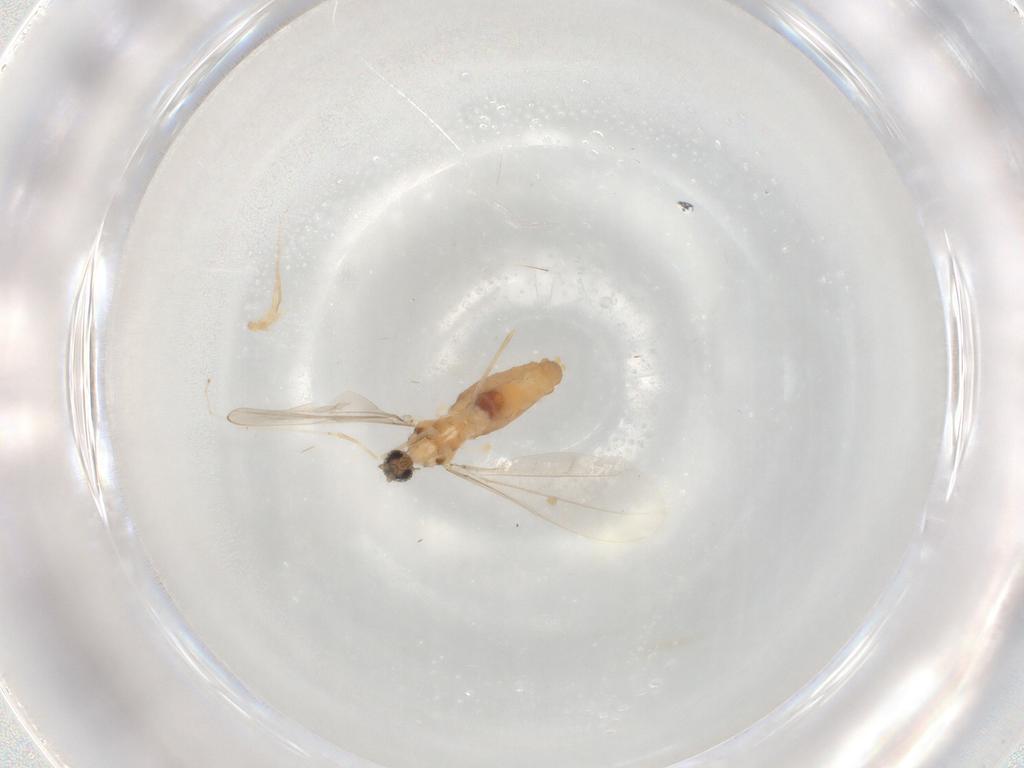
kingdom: Animalia
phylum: Arthropoda
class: Insecta
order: Diptera
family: Cecidomyiidae
